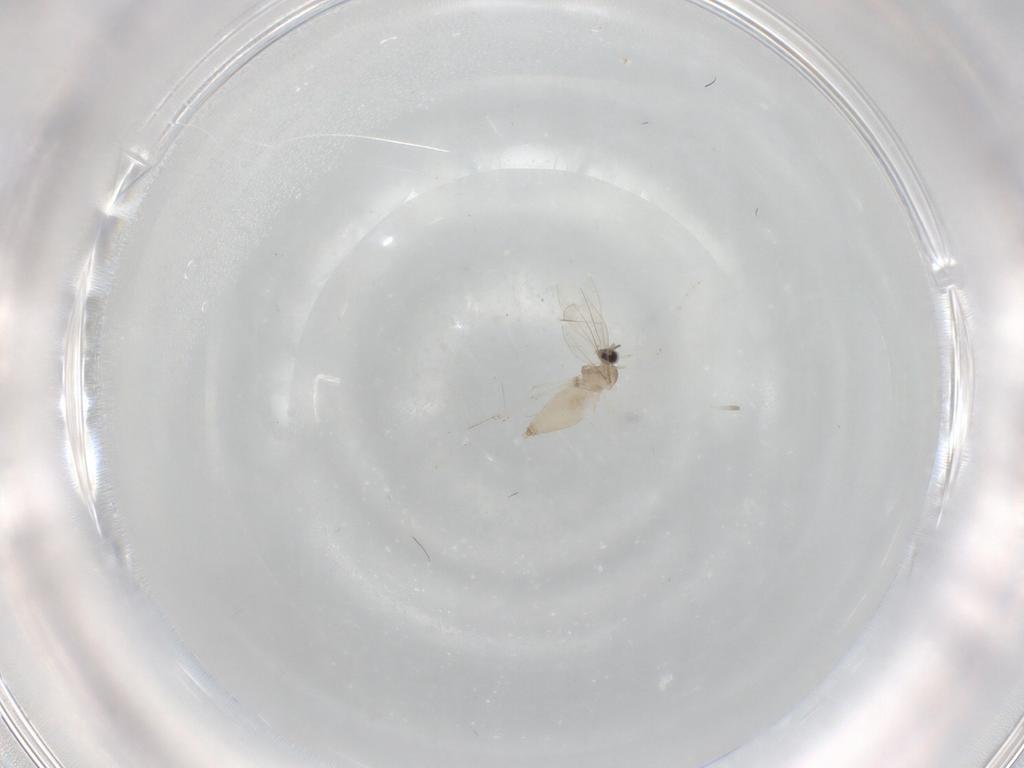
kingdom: Animalia
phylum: Arthropoda
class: Insecta
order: Diptera
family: Cecidomyiidae
